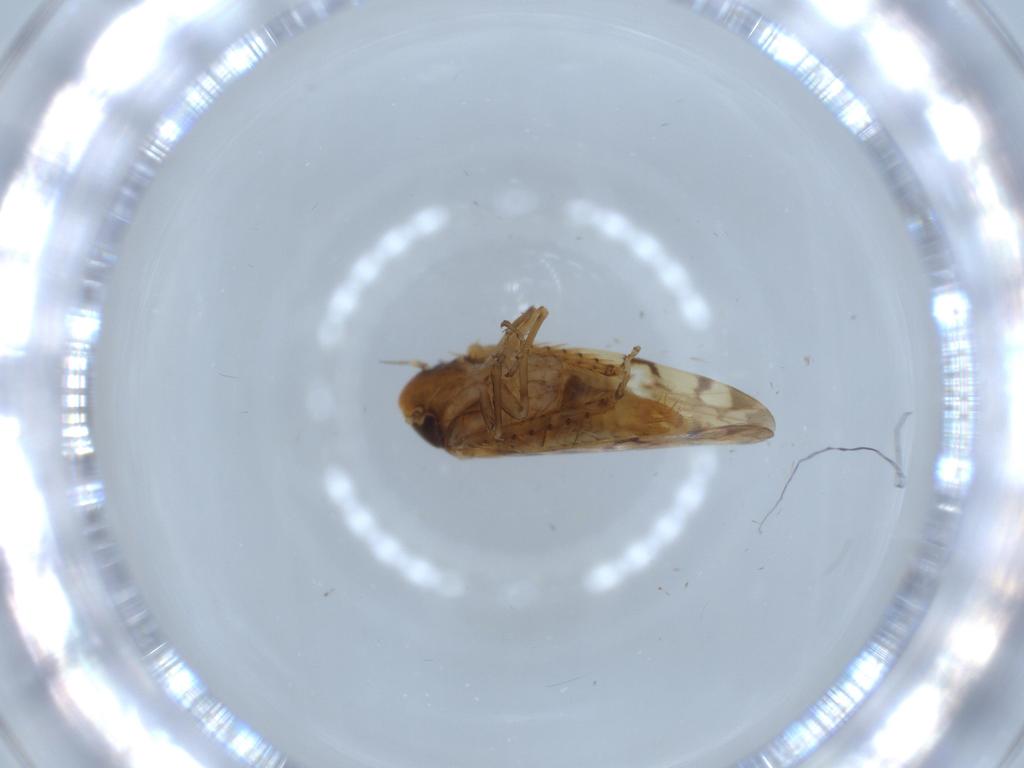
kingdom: Animalia
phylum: Arthropoda
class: Insecta
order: Hemiptera
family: Cicadellidae
